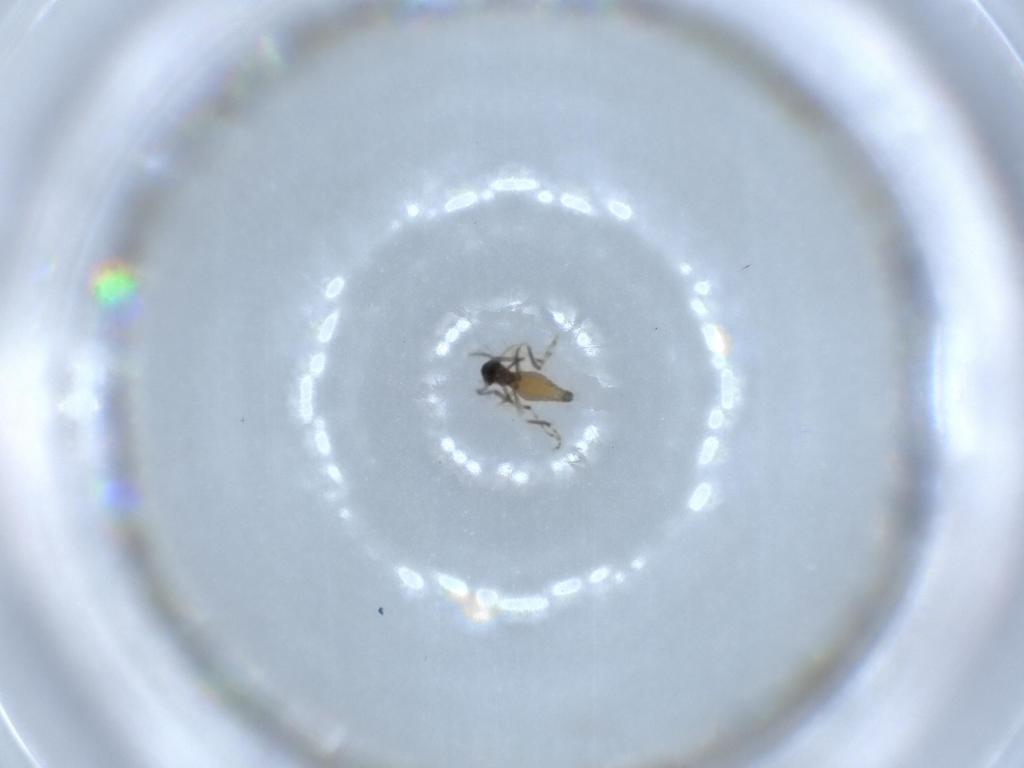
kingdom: Animalia
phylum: Arthropoda
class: Insecta
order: Diptera
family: Ceratopogonidae
